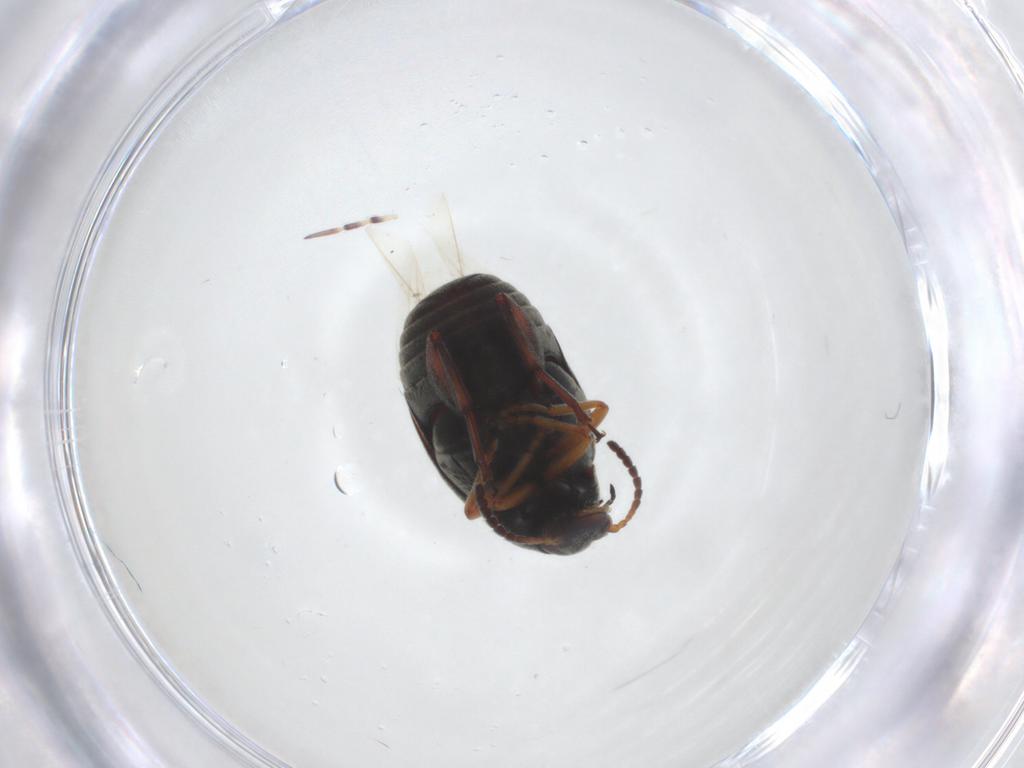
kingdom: Animalia
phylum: Arthropoda
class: Insecta
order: Coleoptera
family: Chrysomelidae
